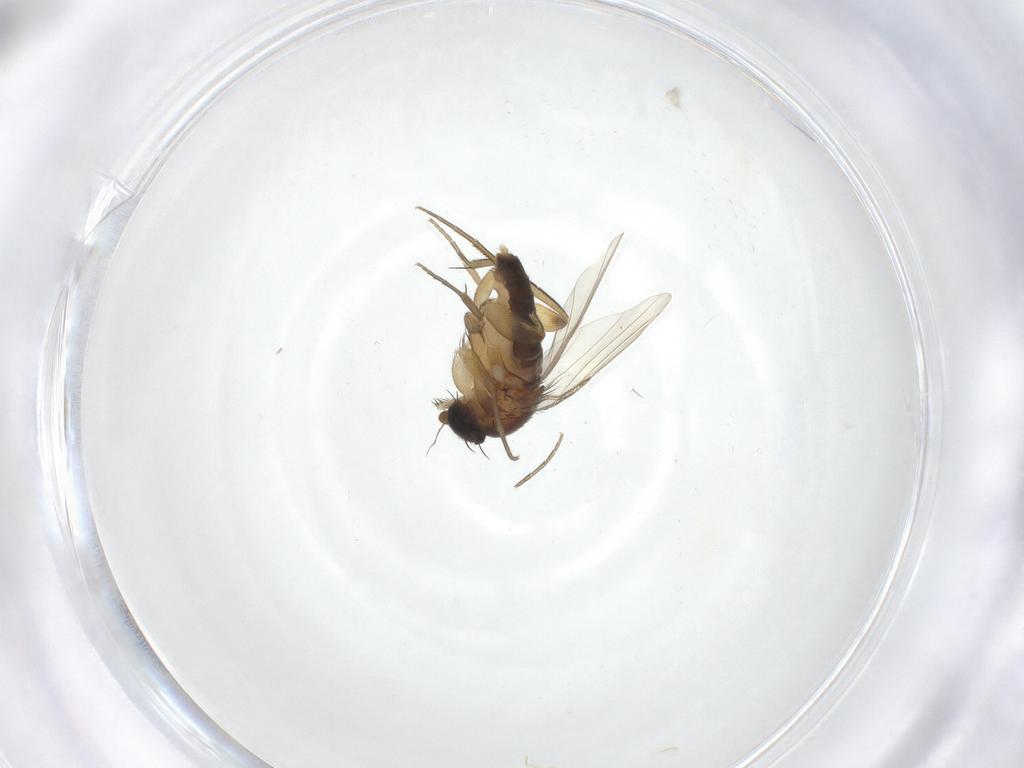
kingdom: Animalia
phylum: Arthropoda
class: Insecta
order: Diptera
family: Phoridae
